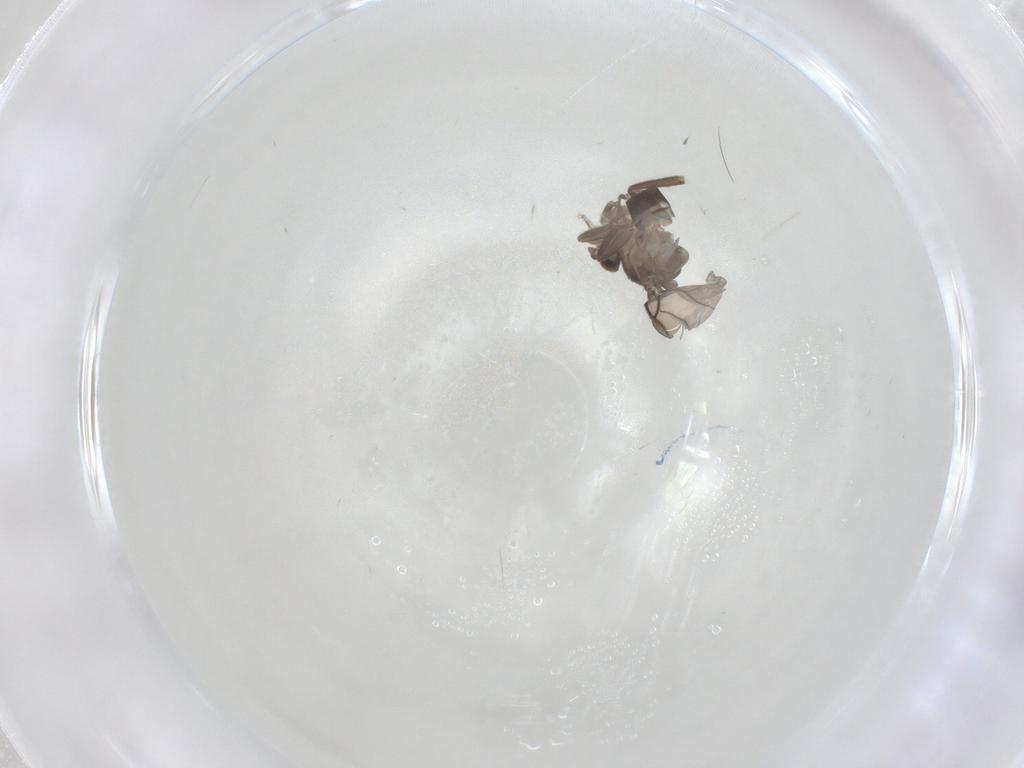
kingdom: Animalia
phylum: Arthropoda
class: Insecta
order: Diptera
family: Phoridae
